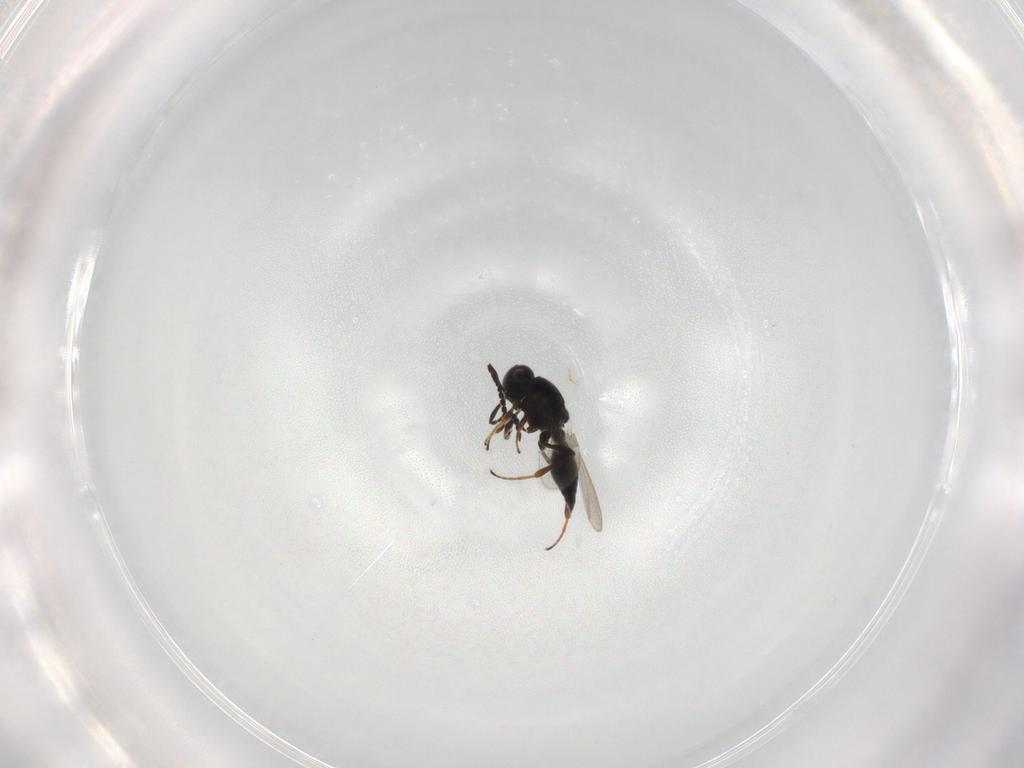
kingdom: Animalia
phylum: Arthropoda
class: Insecta
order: Hymenoptera
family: Platygastridae
